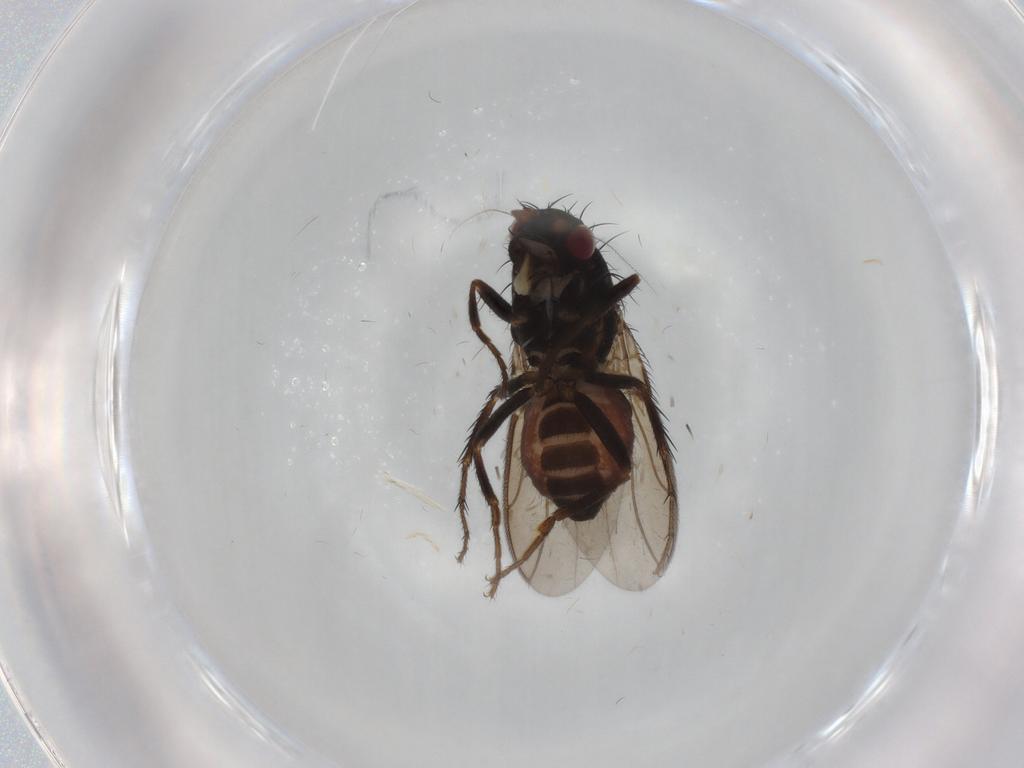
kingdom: Animalia
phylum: Arthropoda
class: Insecta
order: Diptera
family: Sphaeroceridae
